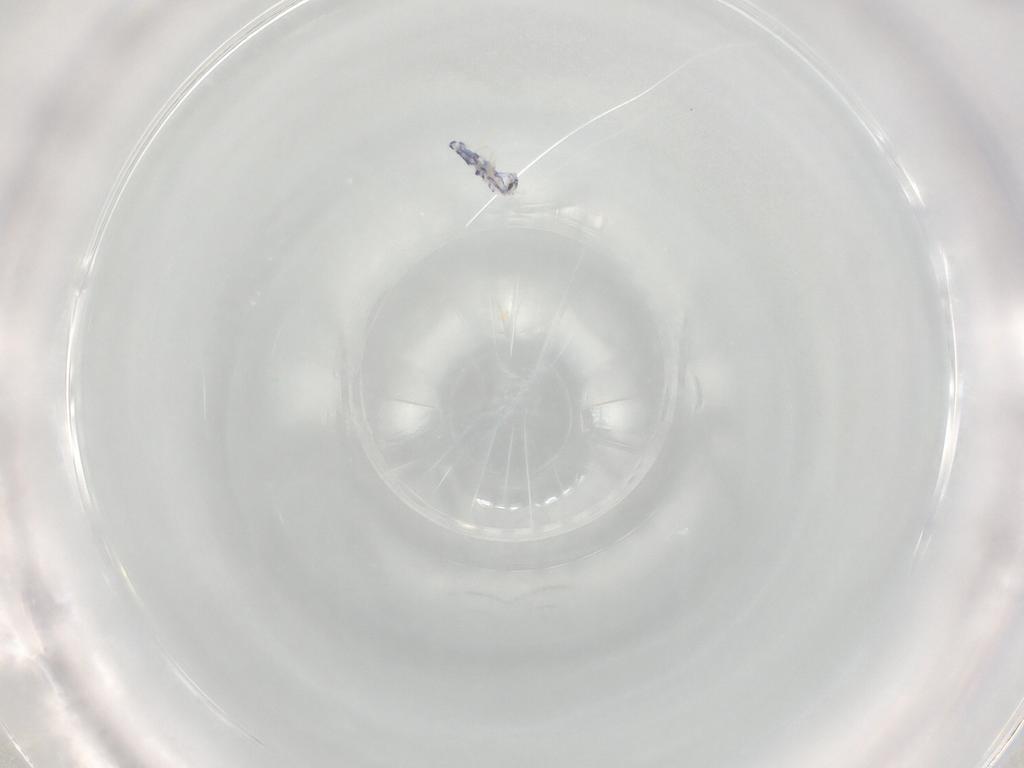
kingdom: Animalia
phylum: Arthropoda
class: Collembola
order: Entomobryomorpha
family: Entomobryidae
